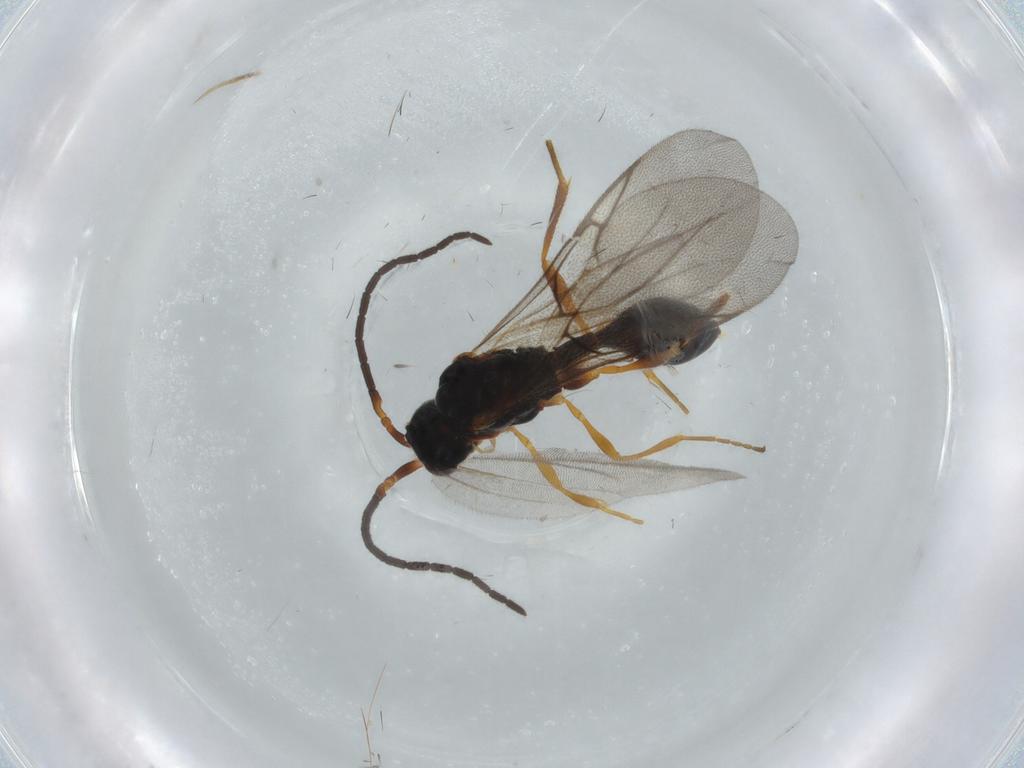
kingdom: Animalia
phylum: Arthropoda
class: Insecta
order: Hymenoptera
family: Diapriidae
